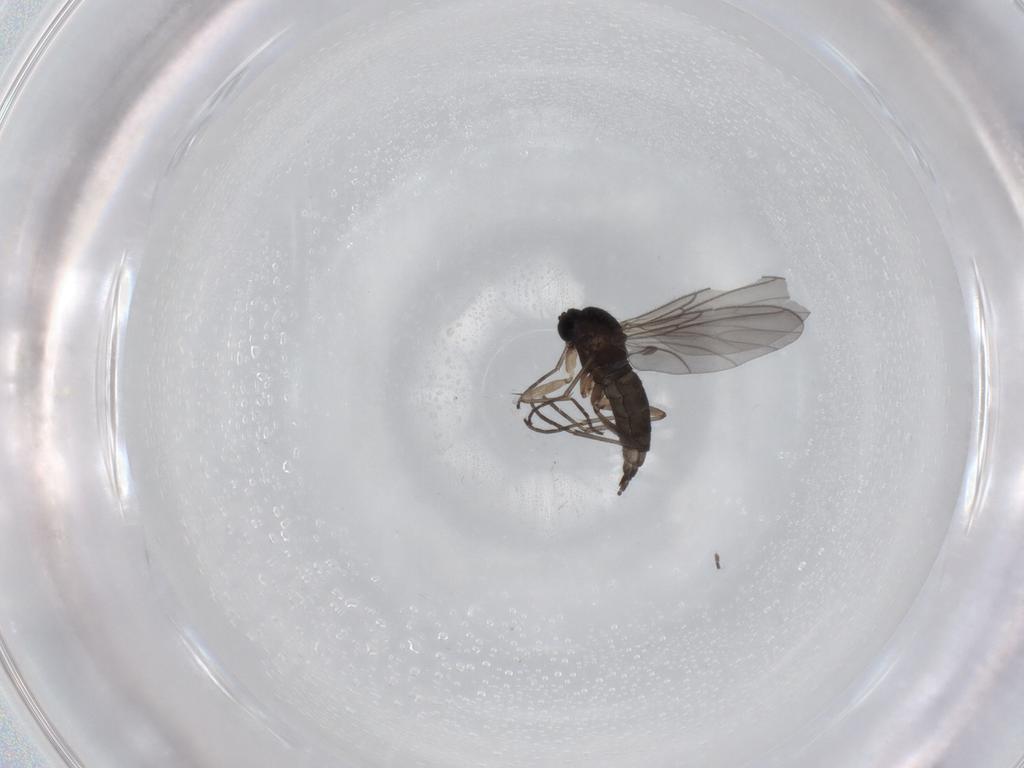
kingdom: Animalia
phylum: Arthropoda
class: Insecta
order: Diptera
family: Sciaridae
